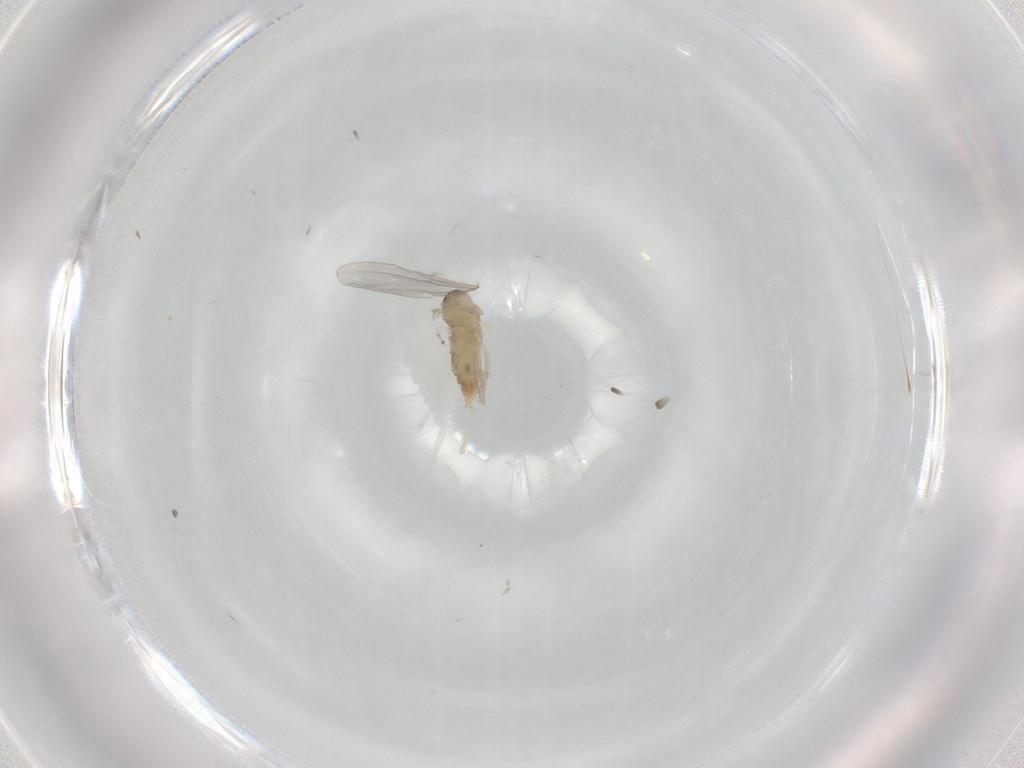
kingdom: Animalia
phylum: Arthropoda
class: Insecta
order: Diptera
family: Cecidomyiidae
